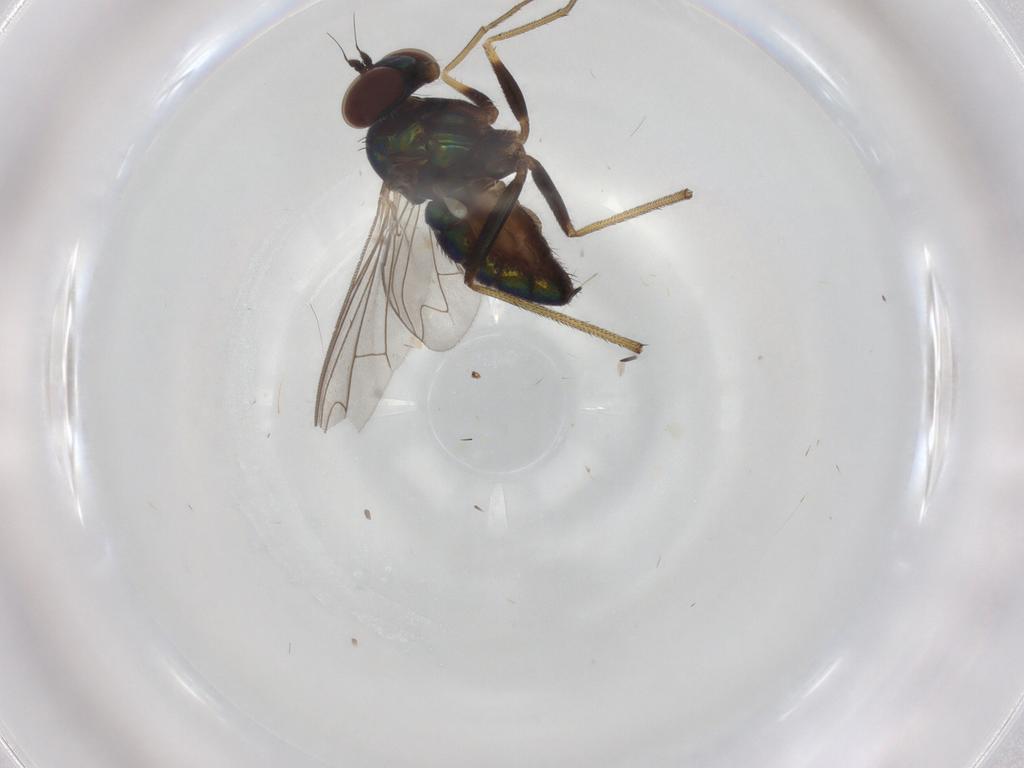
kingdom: Animalia
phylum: Arthropoda
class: Insecta
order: Diptera
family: Dolichopodidae
